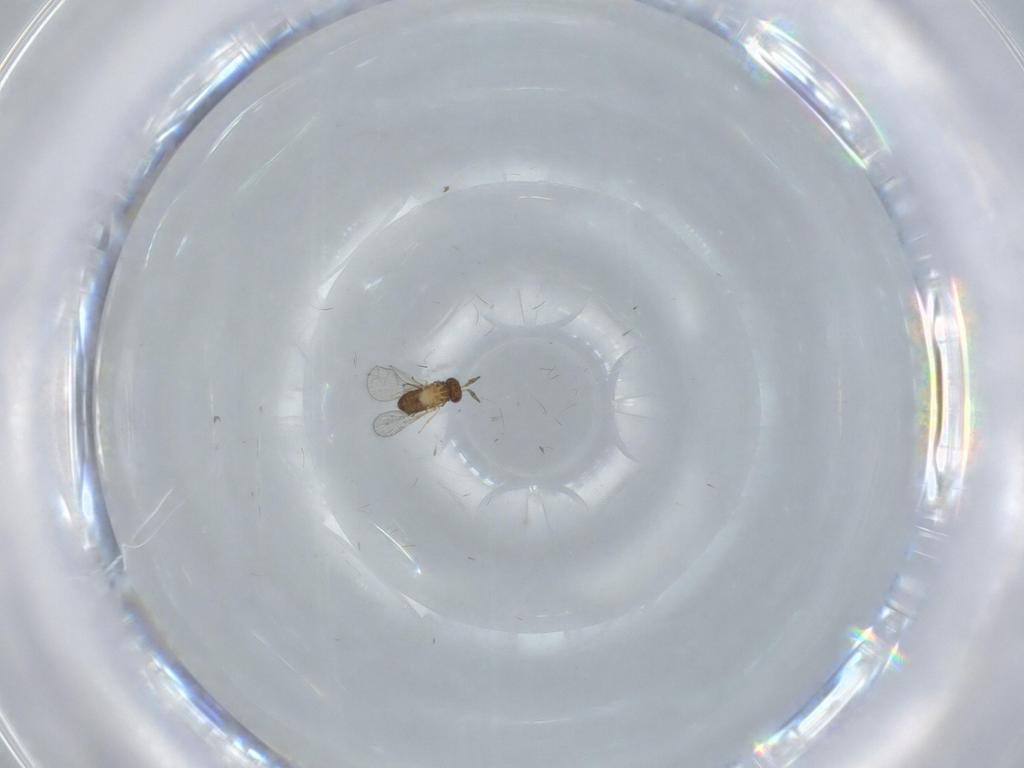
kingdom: Animalia
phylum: Arthropoda
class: Insecta
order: Hymenoptera
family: Trichogrammatidae
